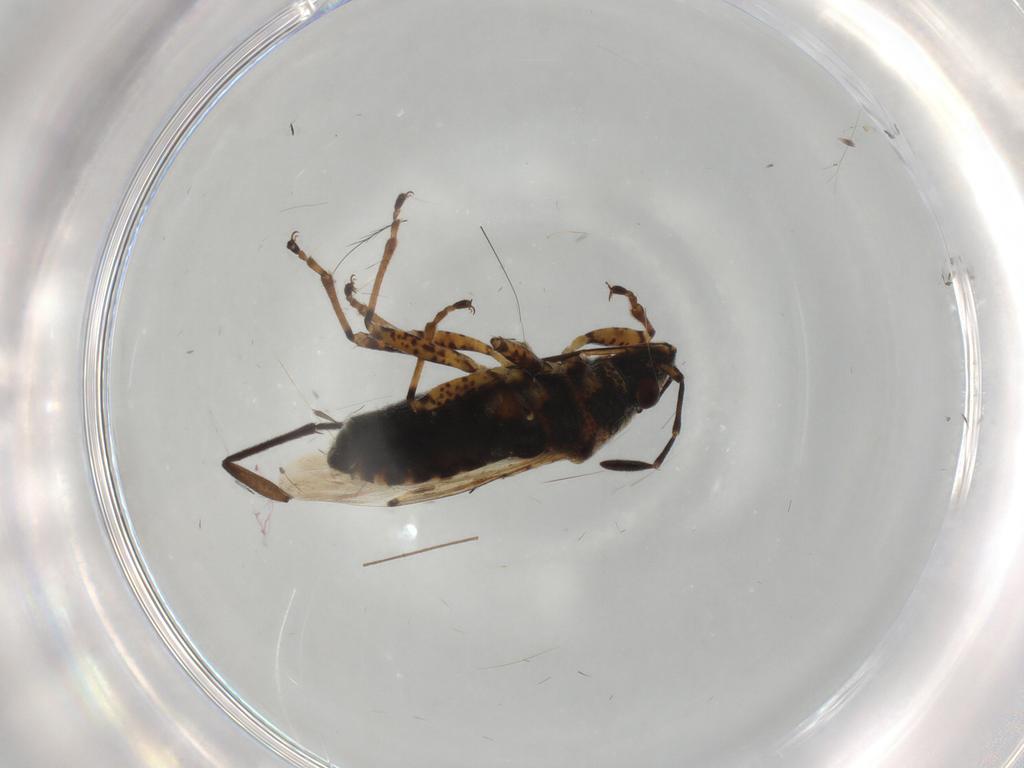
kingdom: Animalia
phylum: Arthropoda
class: Insecta
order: Hemiptera
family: Lygaeidae
